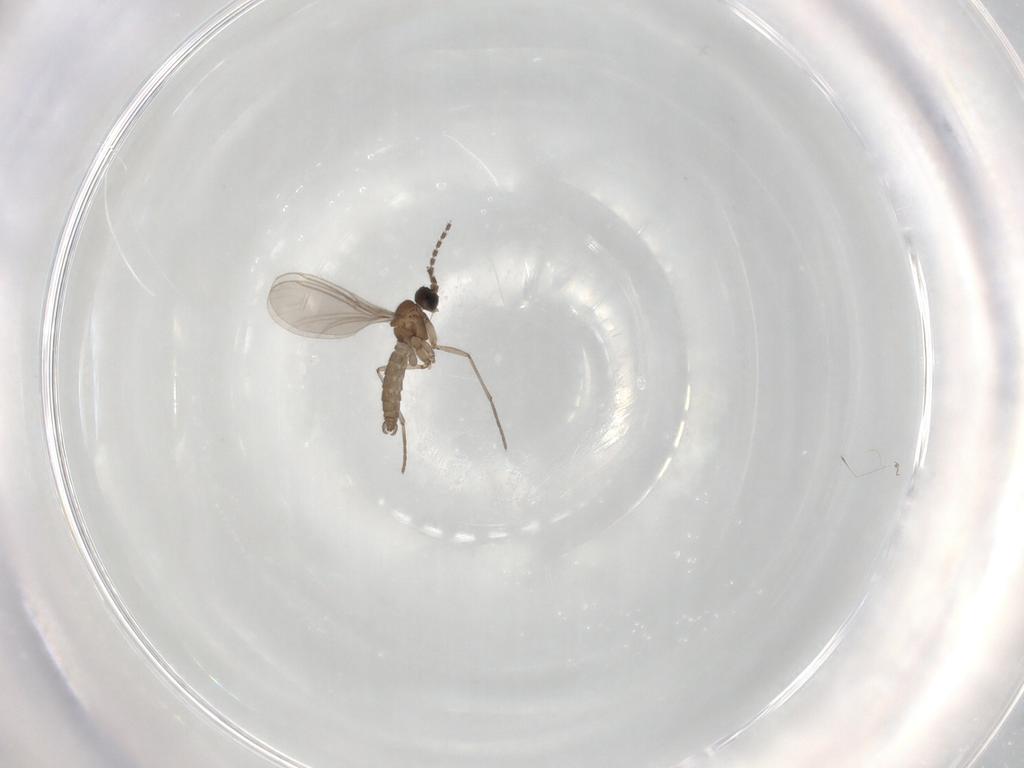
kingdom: Animalia
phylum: Arthropoda
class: Insecta
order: Diptera
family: Sciaridae
